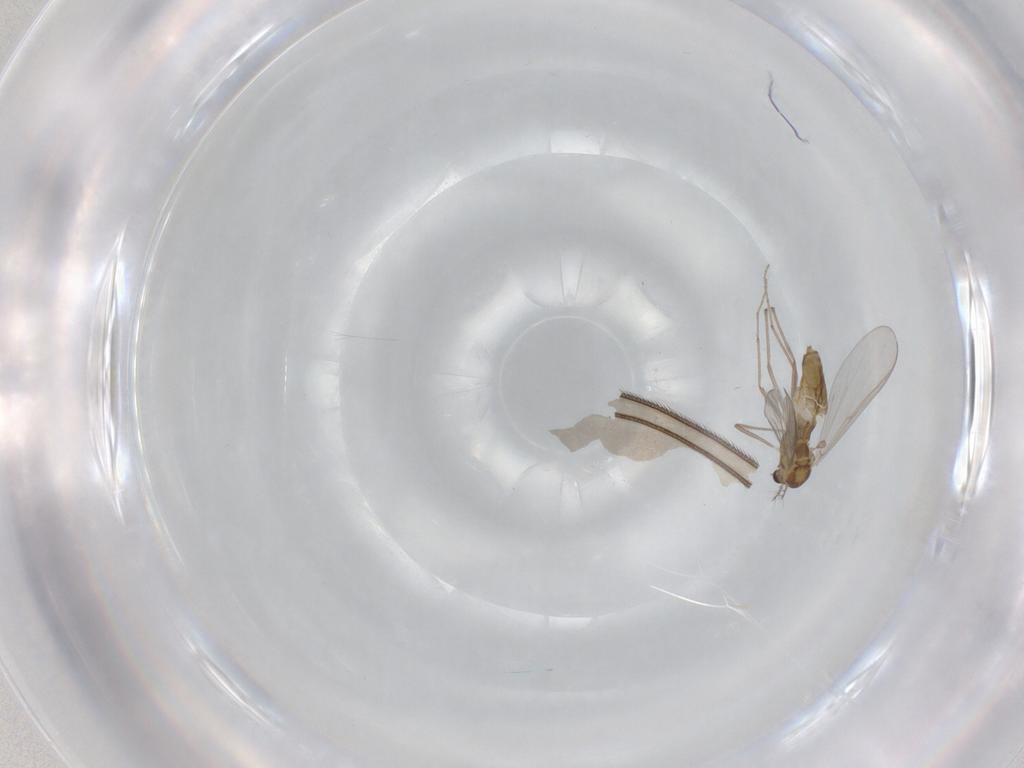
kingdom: Animalia
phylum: Arthropoda
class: Insecta
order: Diptera
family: Chironomidae
